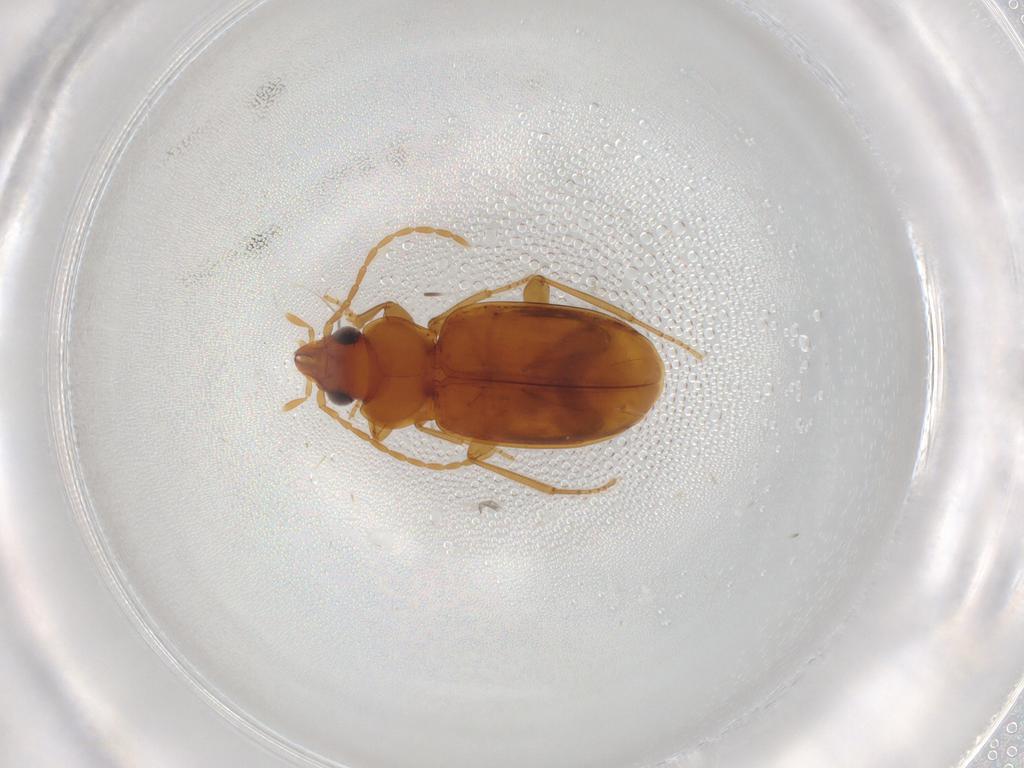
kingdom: Animalia
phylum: Arthropoda
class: Insecta
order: Coleoptera
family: Carabidae
